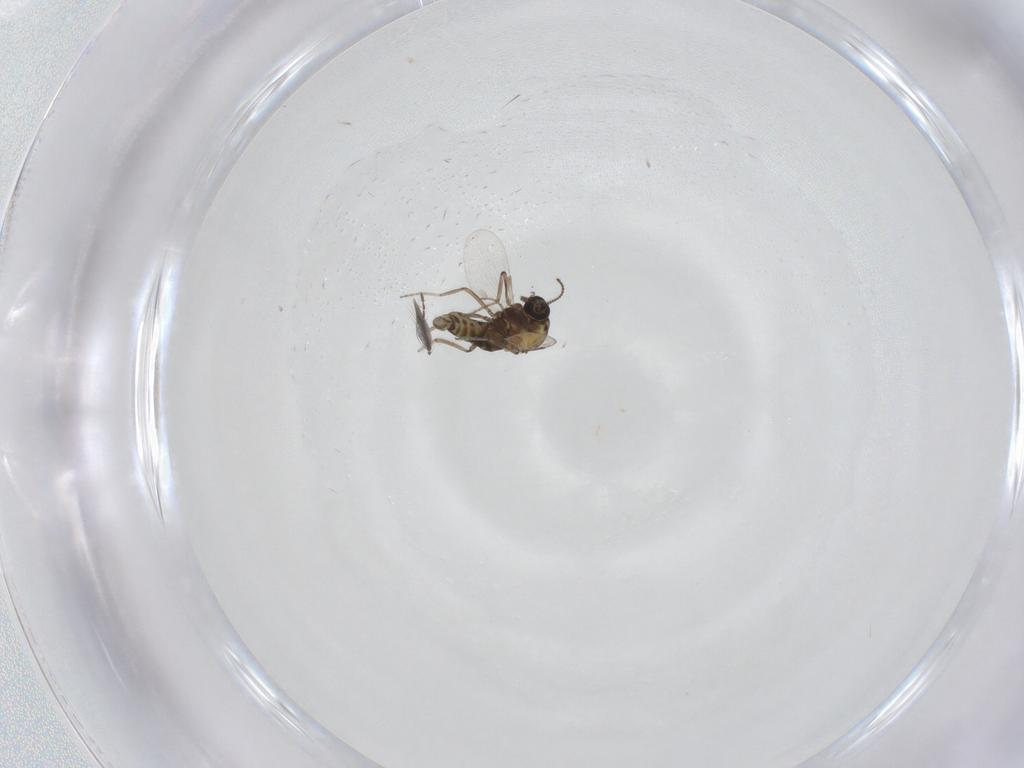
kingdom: Animalia
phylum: Arthropoda
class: Insecta
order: Diptera
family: Ceratopogonidae
